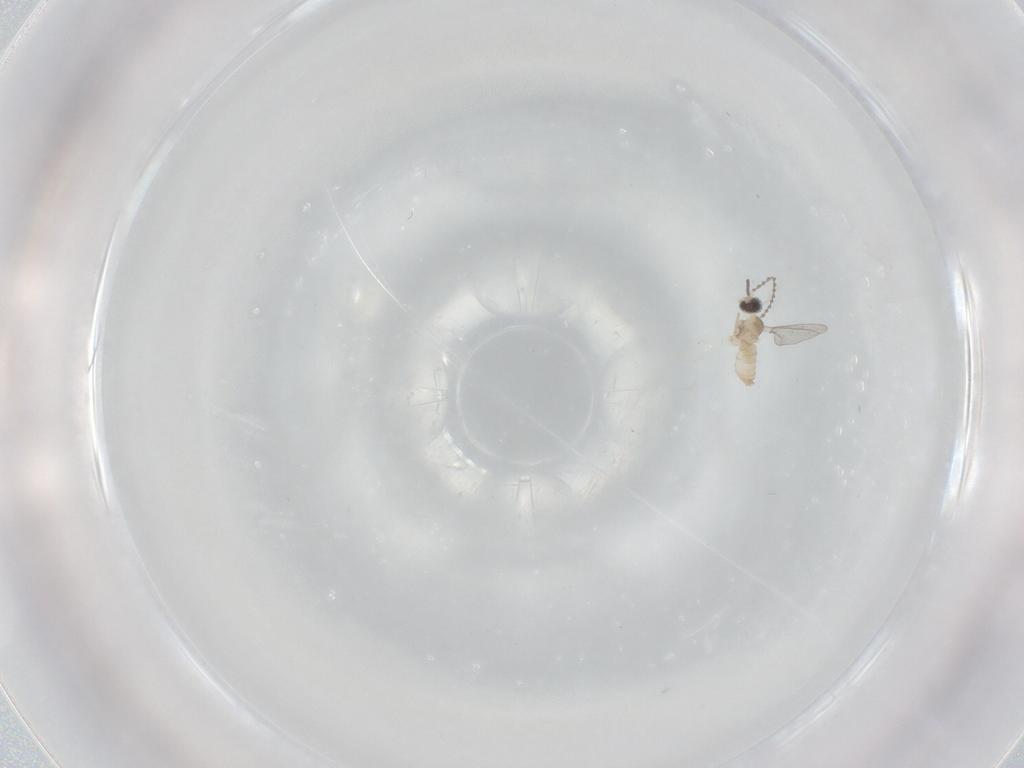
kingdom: Animalia
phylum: Arthropoda
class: Insecta
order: Diptera
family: Cecidomyiidae
